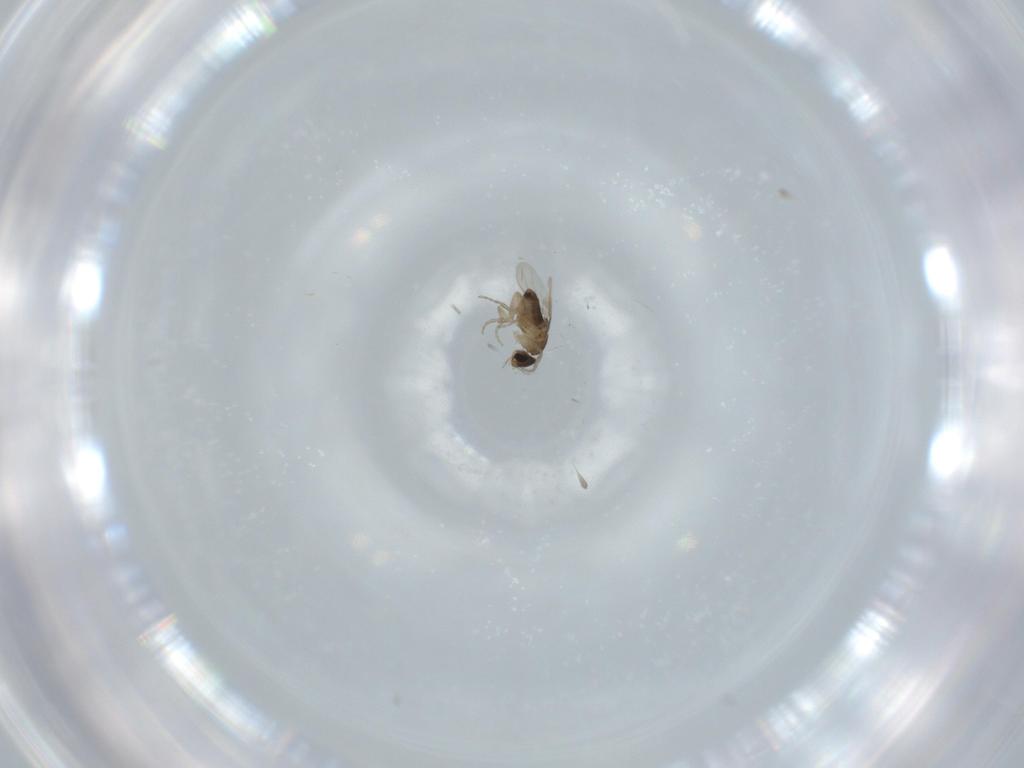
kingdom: Animalia
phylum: Arthropoda
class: Insecta
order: Diptera
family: Phoridae
